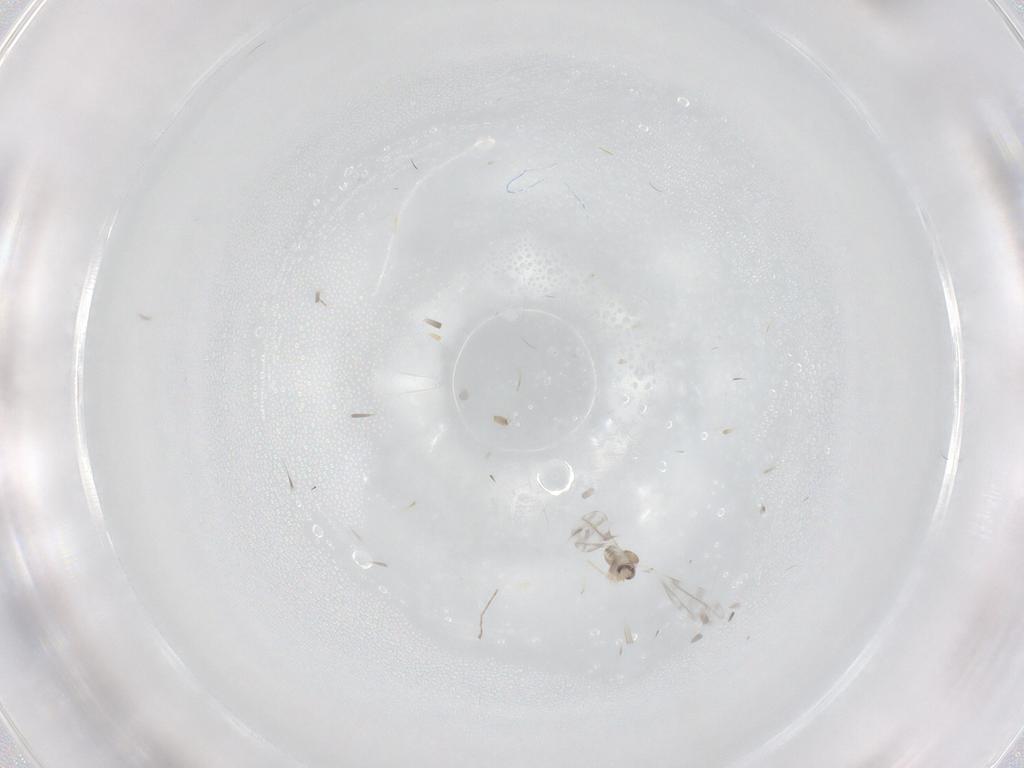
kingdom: Animalia
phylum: Arthropoda
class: Insecta
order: Diptera
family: Cecidomyiidae
